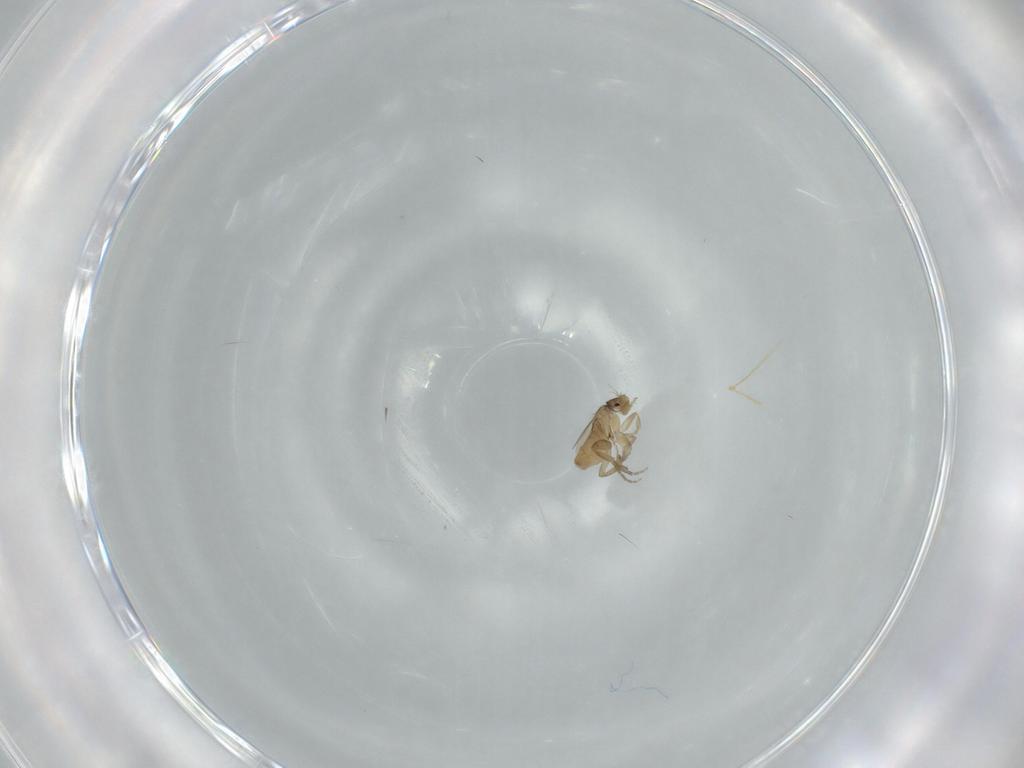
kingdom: Animalia
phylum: Arthropoda
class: Insecta
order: Diptera
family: Phoridae
